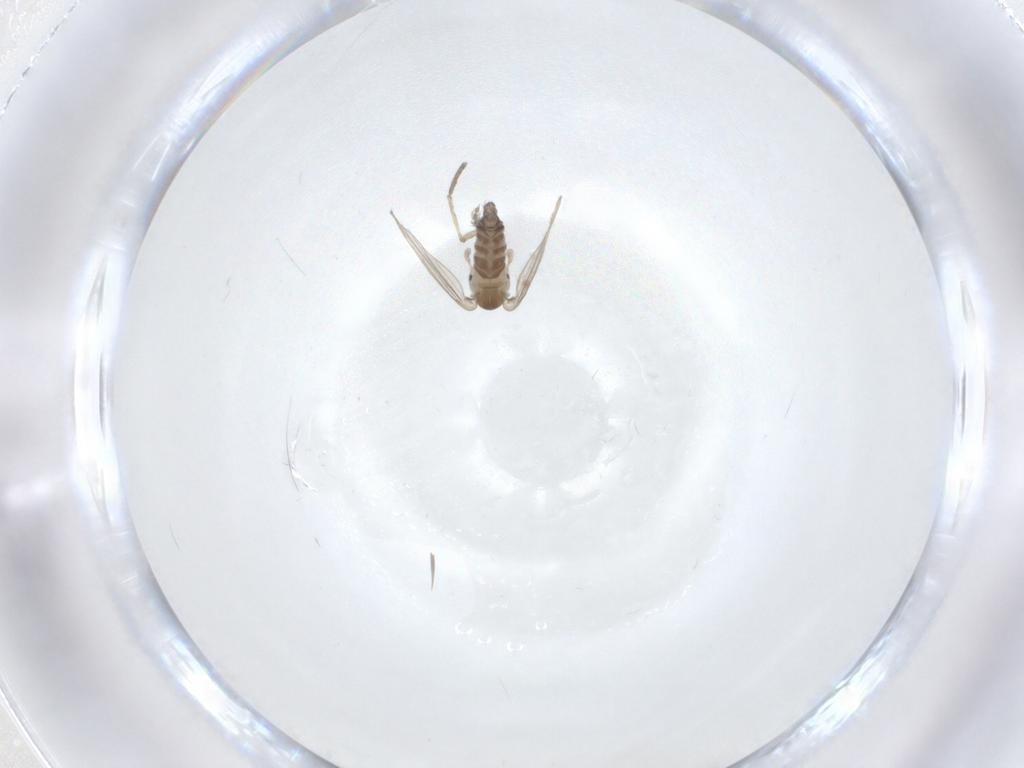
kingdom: Animalia
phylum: Arthropoda
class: Insecta
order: Diptera
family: Psychodidae
